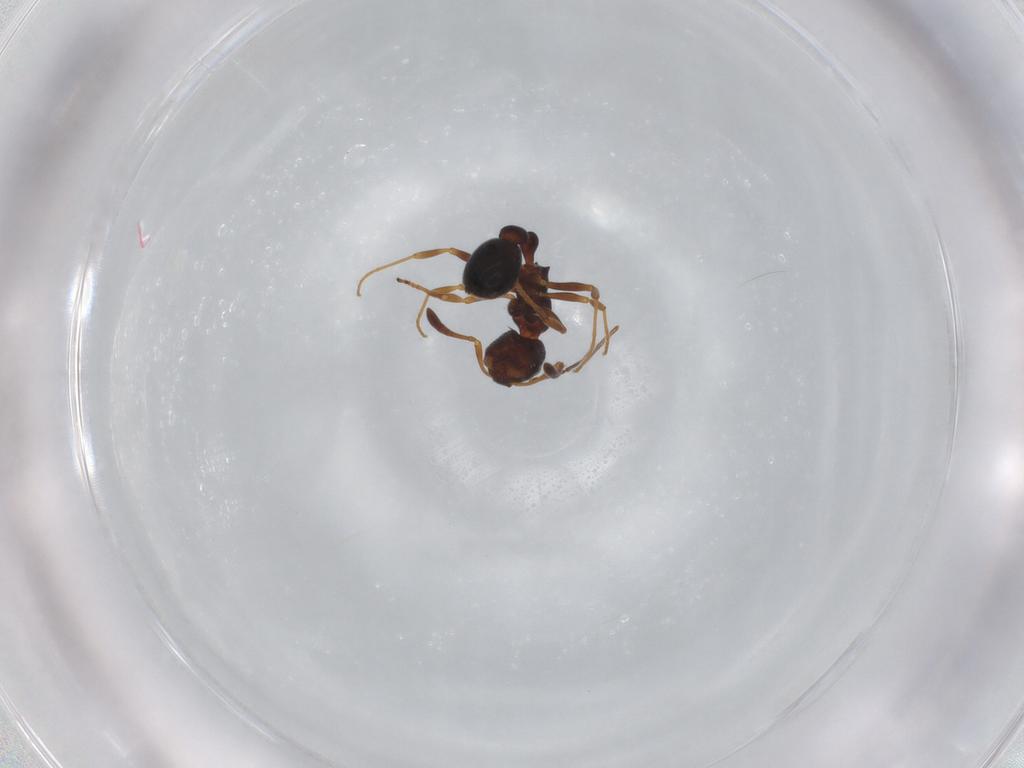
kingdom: Animalia
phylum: Arthropoda
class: Insecta
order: Hymenoptera
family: Formicidae
